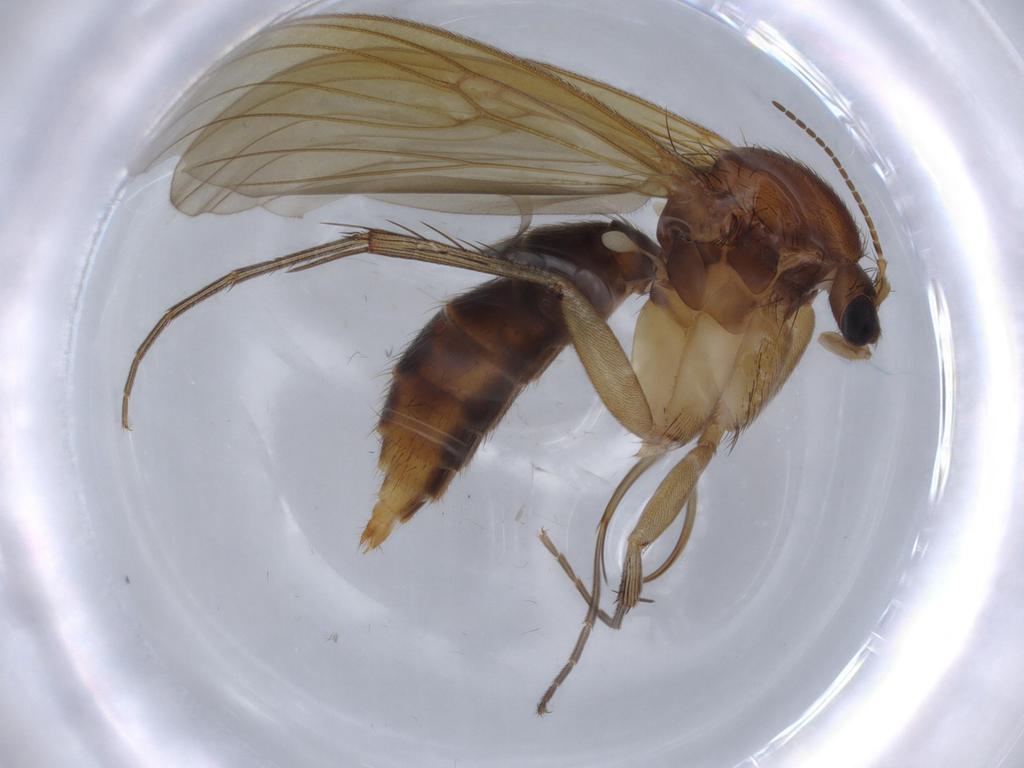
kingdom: Animalia
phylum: Arthropoda
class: Insecta
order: Diptera
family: Mycetophilidae
